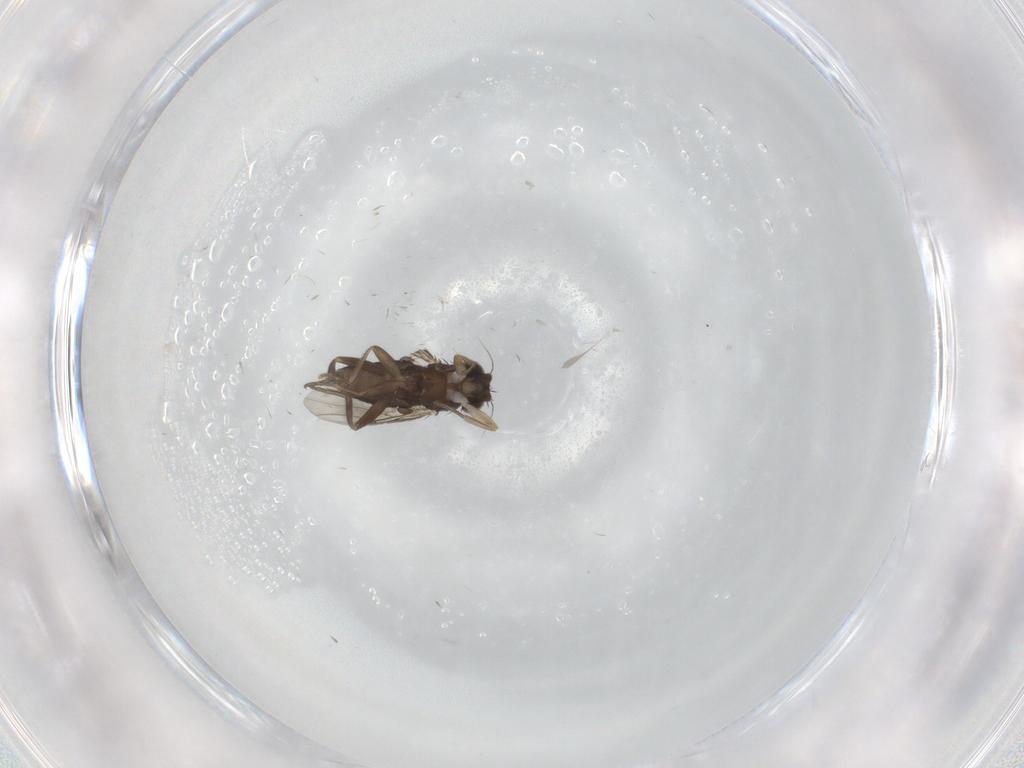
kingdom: Animalia
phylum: Arthropoda
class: Insecta
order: Diptera
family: Phoridae
